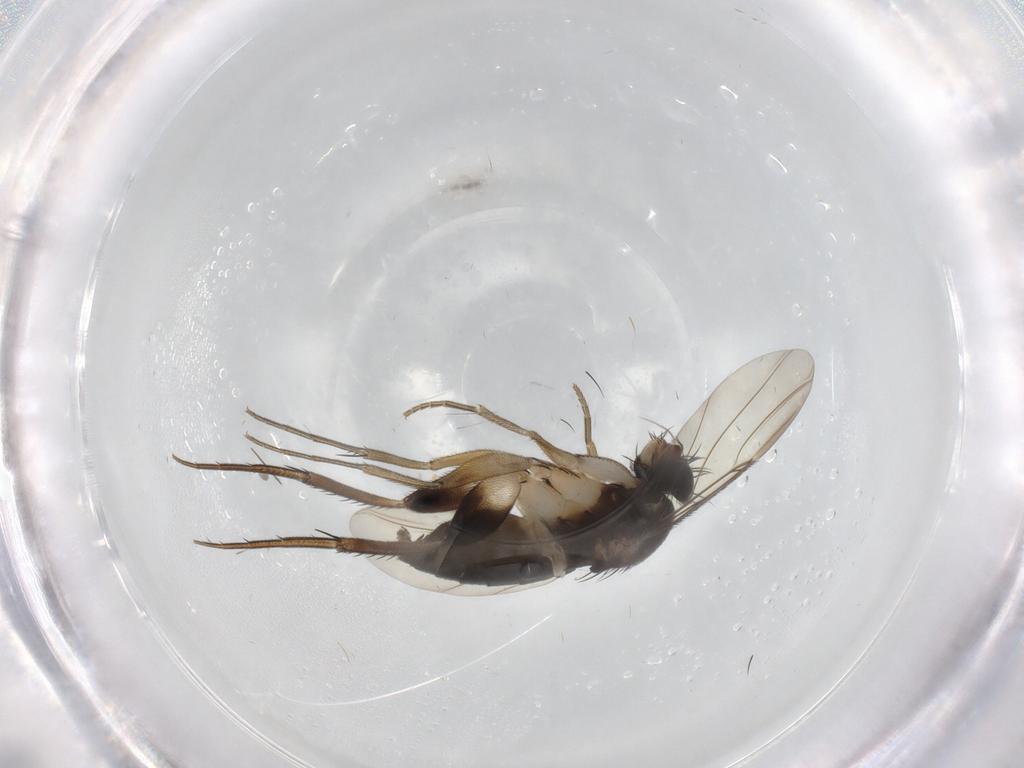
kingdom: Animalia
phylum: Arthropoda
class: Insecta
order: Diptera
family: Phoridae
